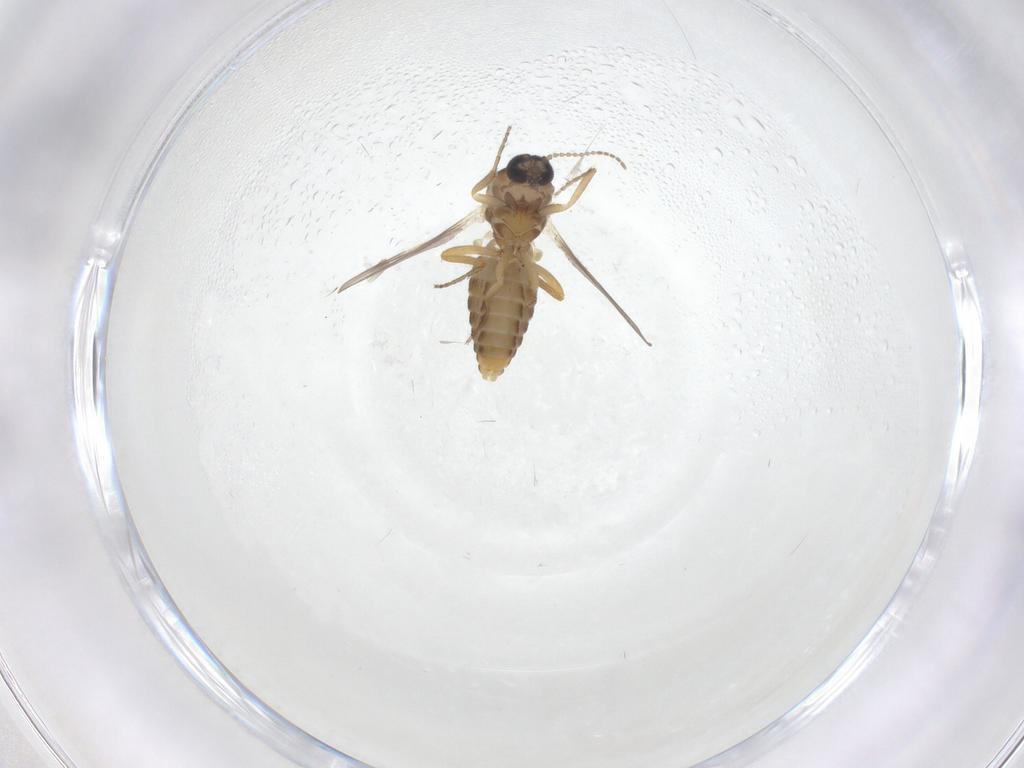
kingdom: Animalia
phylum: Arthropoda
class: Insecta
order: Diptera
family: Ceratopogonidae
